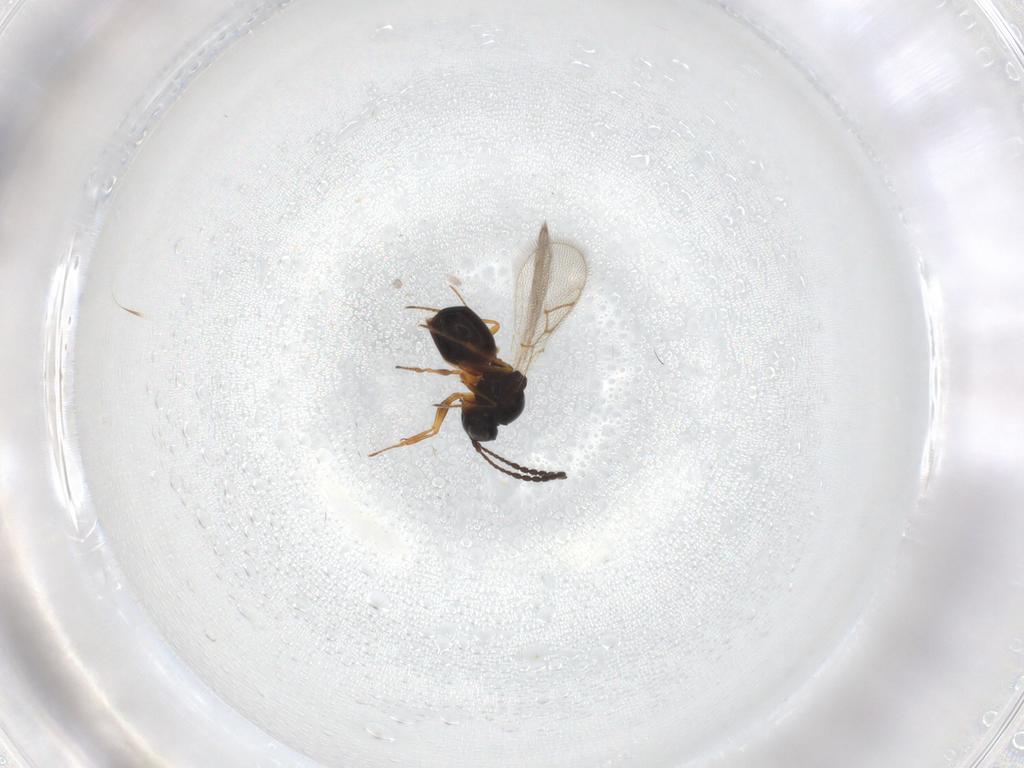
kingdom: Animalia
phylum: Arthropoda
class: Insecta
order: Hymenoptera
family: Figitidae
